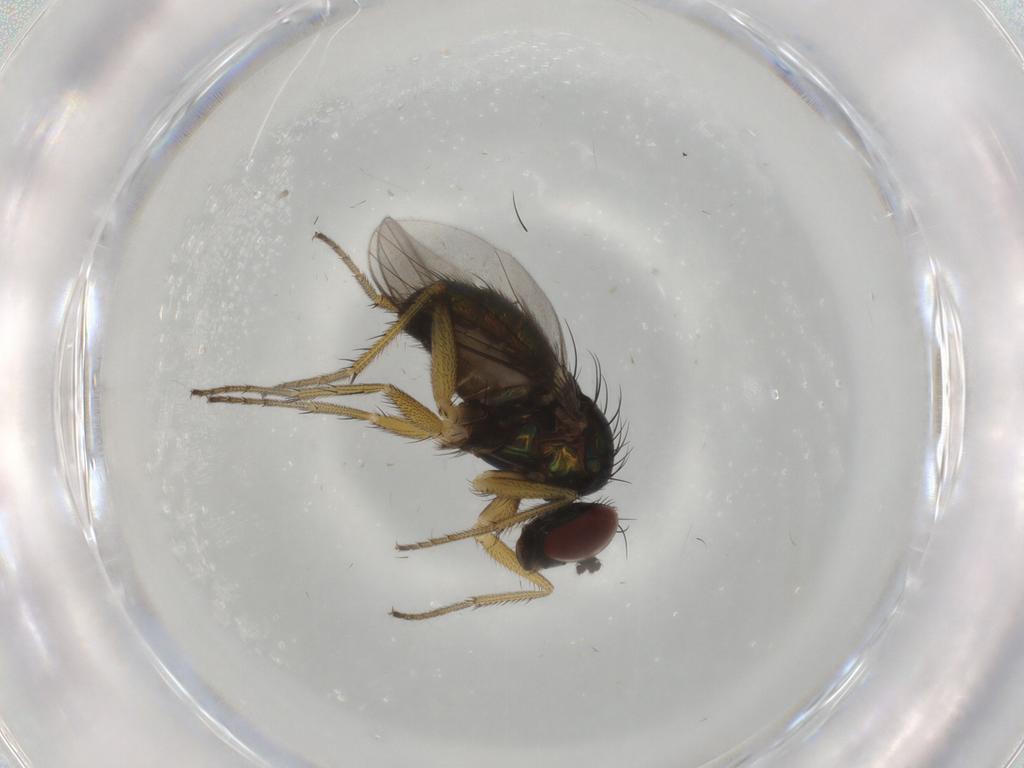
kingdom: Animalia
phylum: Arthropoda
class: Insecta
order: Diptera
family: Dolichopodidae
